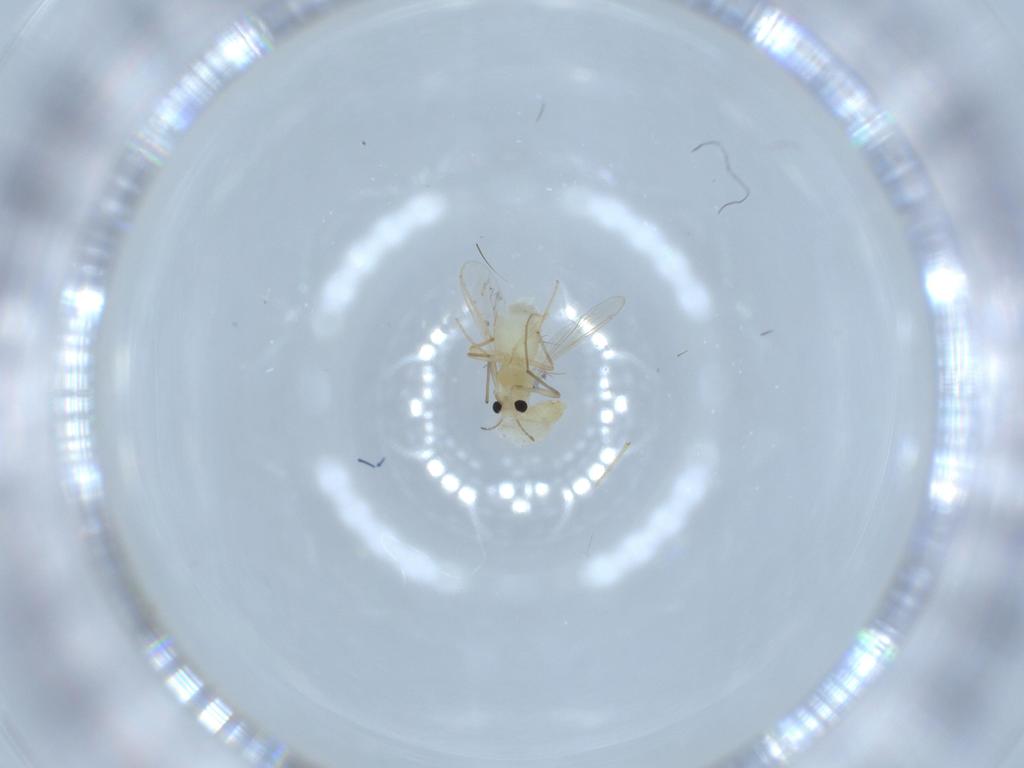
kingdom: Animalia
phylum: Arthropoda
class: Insecta
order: Diptera
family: Chironomidae
